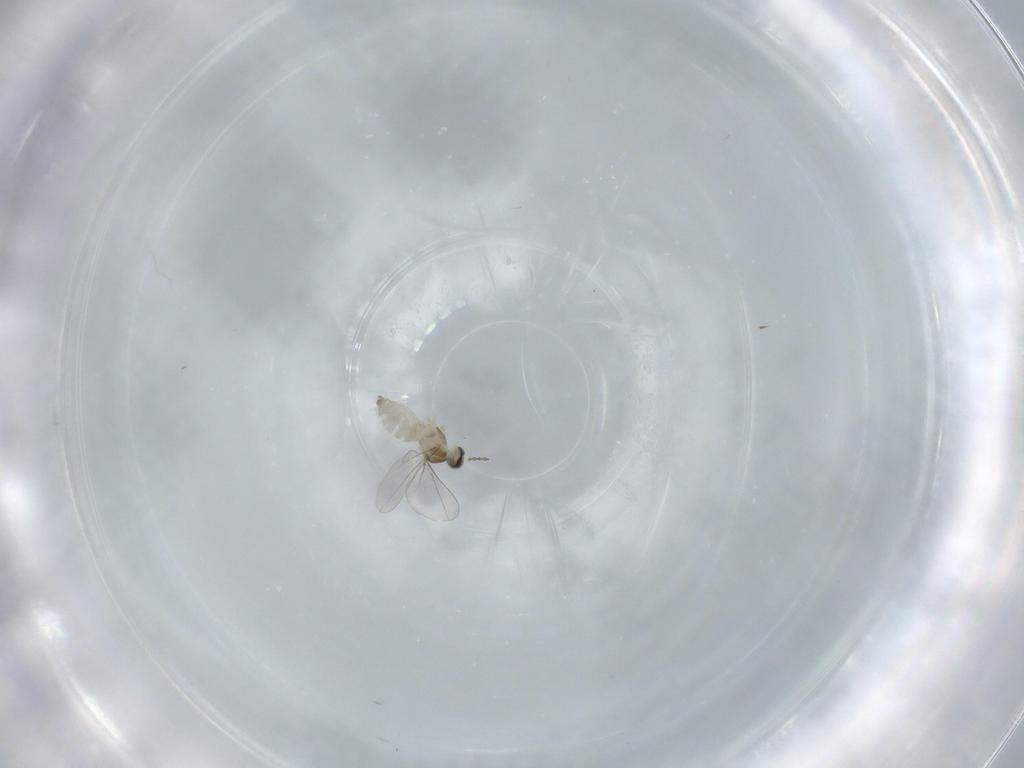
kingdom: Animalia
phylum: Arthropoda
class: Insecta
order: Diptera
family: Cecidomyiidae
